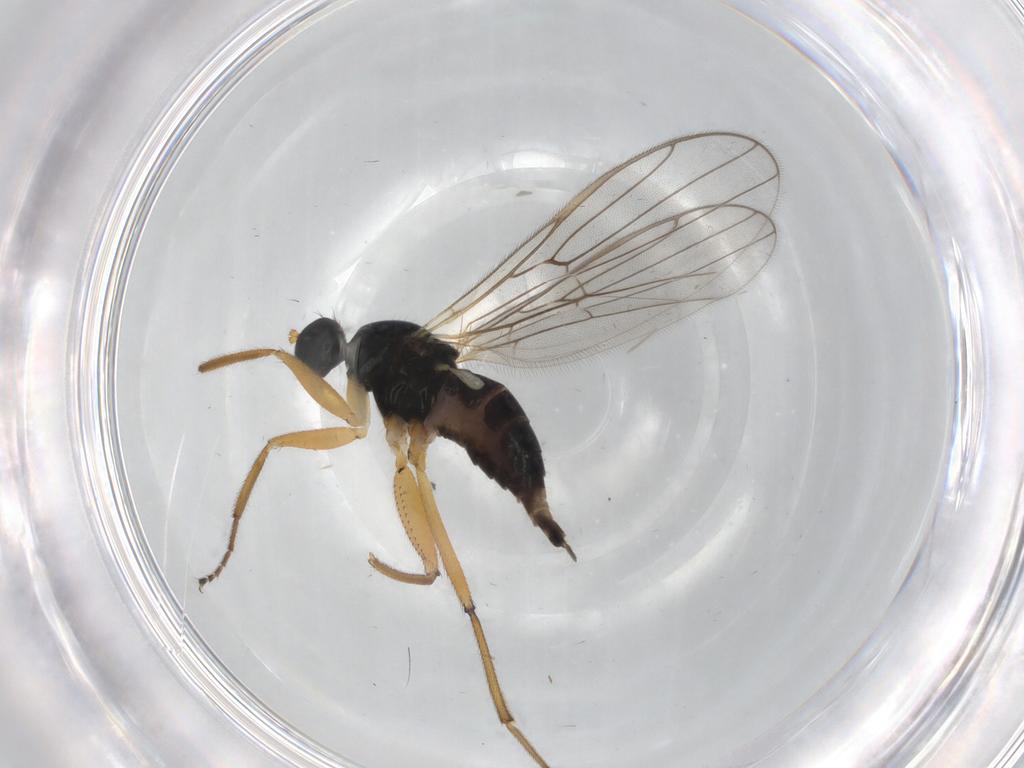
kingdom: Animalia
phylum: Arthropoda
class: Insecta
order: Diptera
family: Hybotidae
